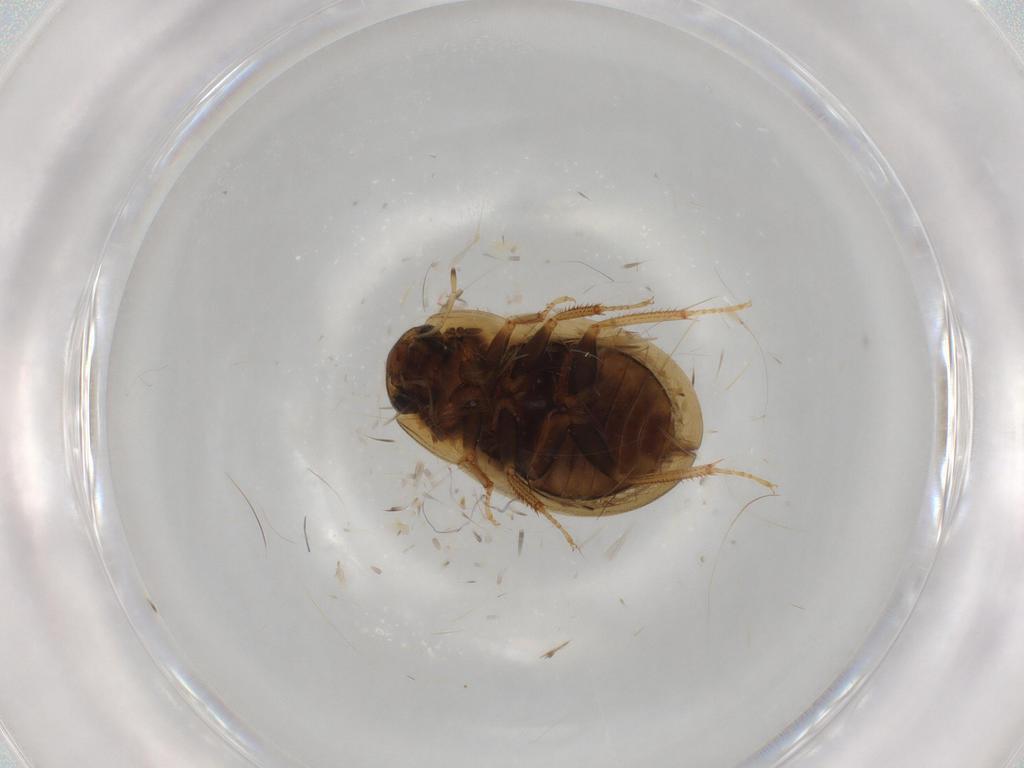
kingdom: Animalia
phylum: Arthropoda
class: Insecta
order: Coleoptera
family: Hydrophilidae
